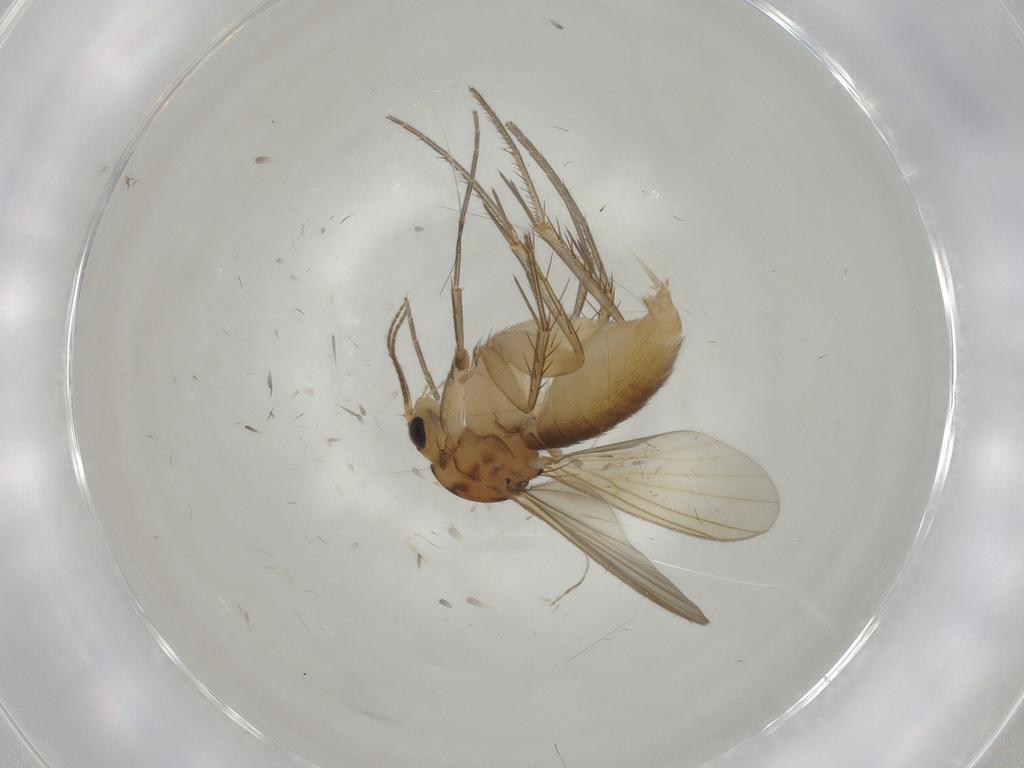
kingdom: Animalia
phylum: Arthropoda
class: Insecta
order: Diptera
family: Mycetophilidae
